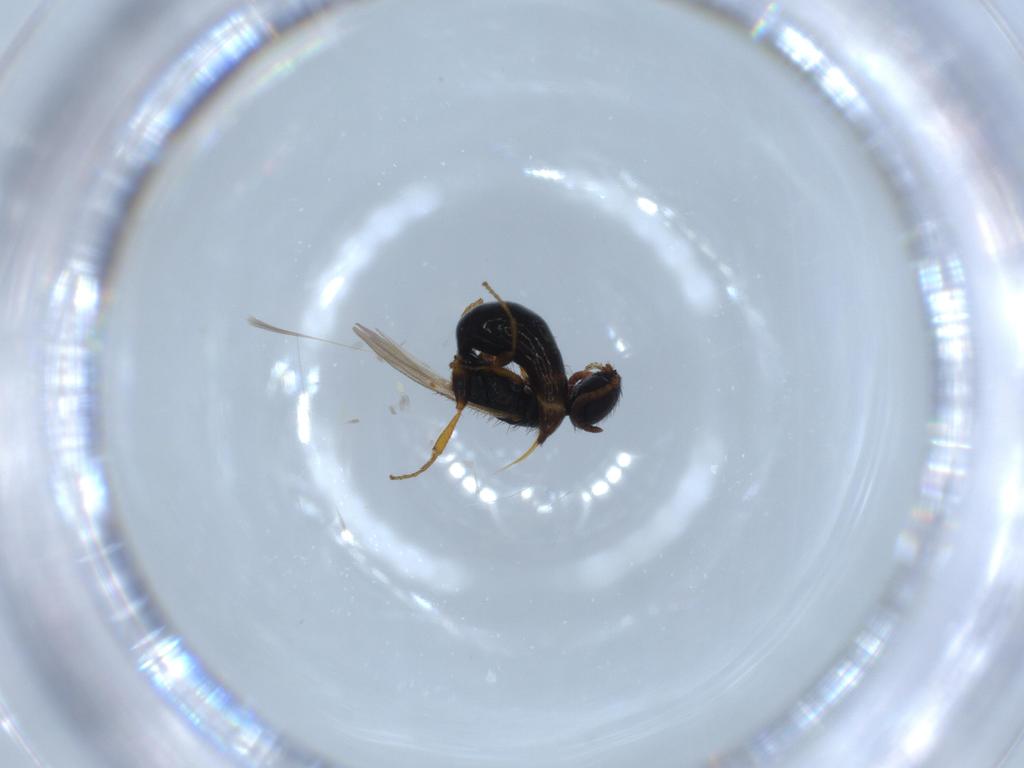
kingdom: Animalia
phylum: Arthropoda
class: Insecta
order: Hymenoptera
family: Bethylidae
